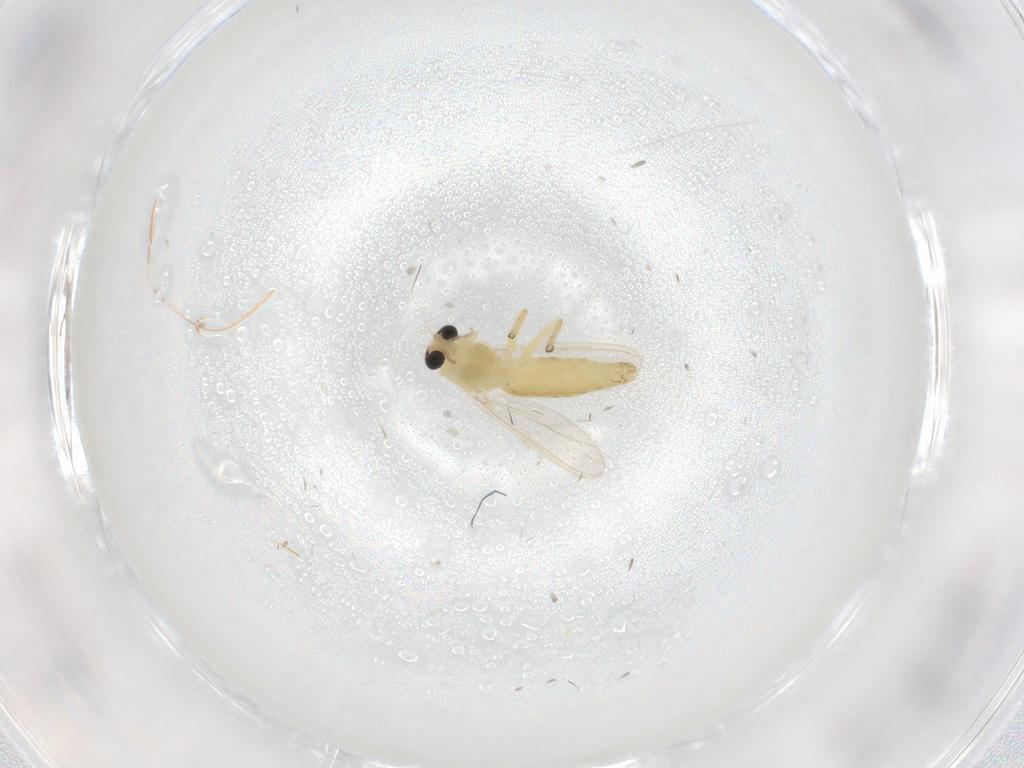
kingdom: Animalia
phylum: Arthropoda
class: Insecta
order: Diptera
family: Chironomidae
